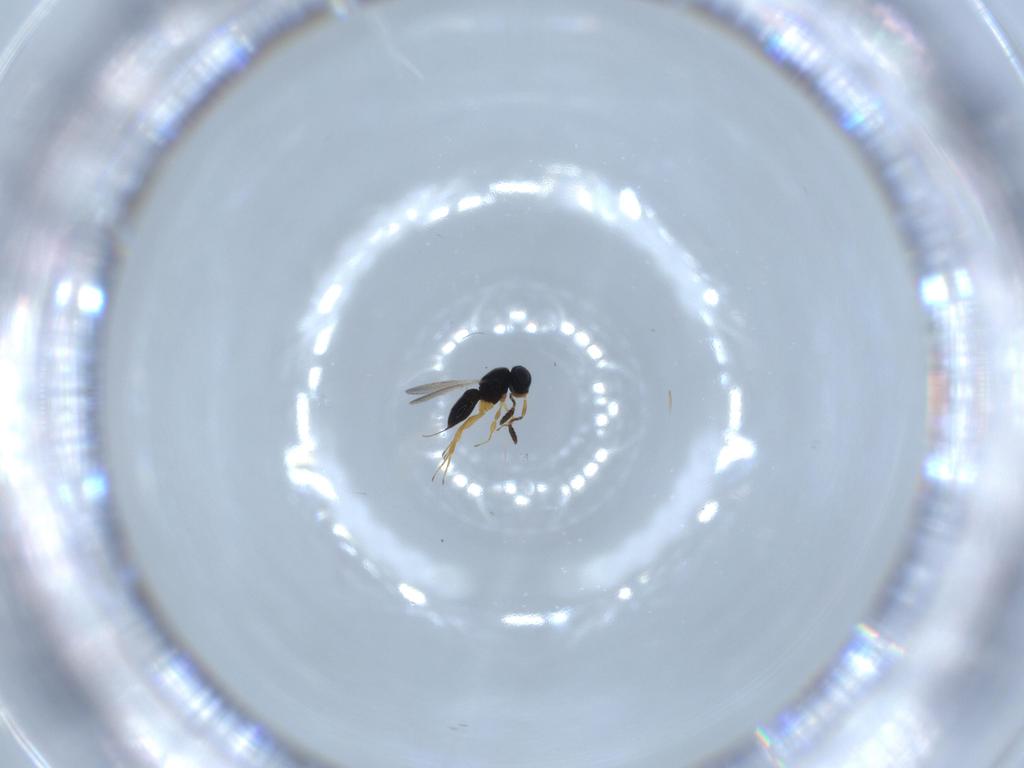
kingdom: Animalia
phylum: Arthropoda
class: Insecta
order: Hymenoptera
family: Scelionidae
